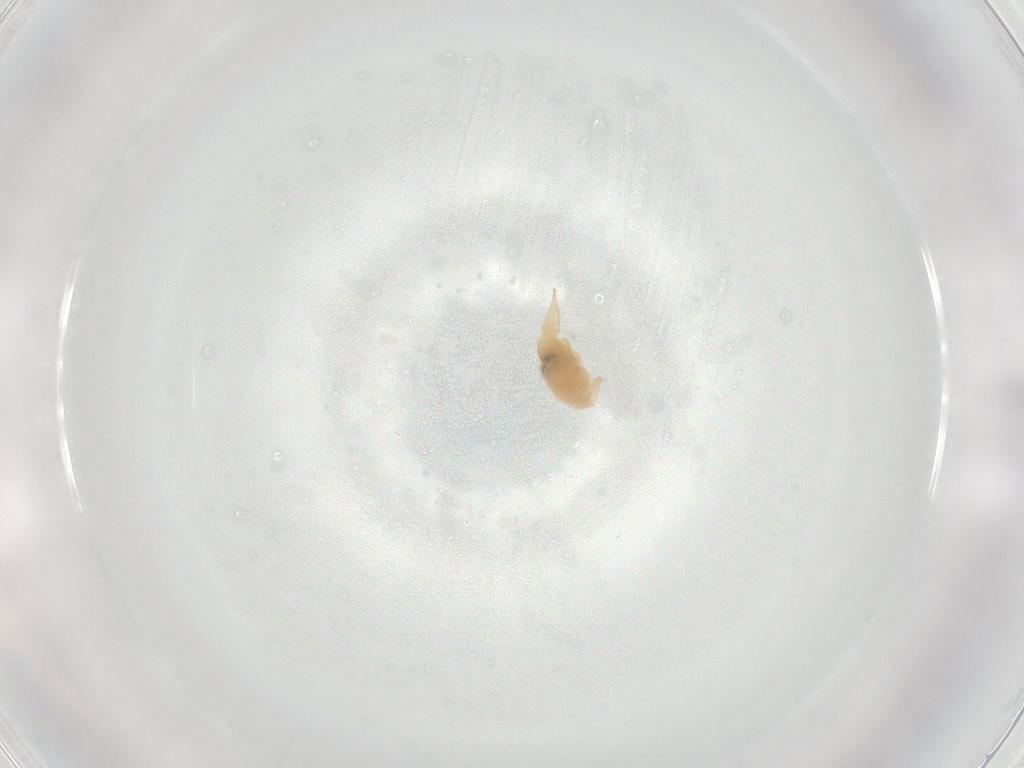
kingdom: Animalia
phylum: Arthropoda
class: Arachnida
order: Trombidiformes
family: Bdellidae
